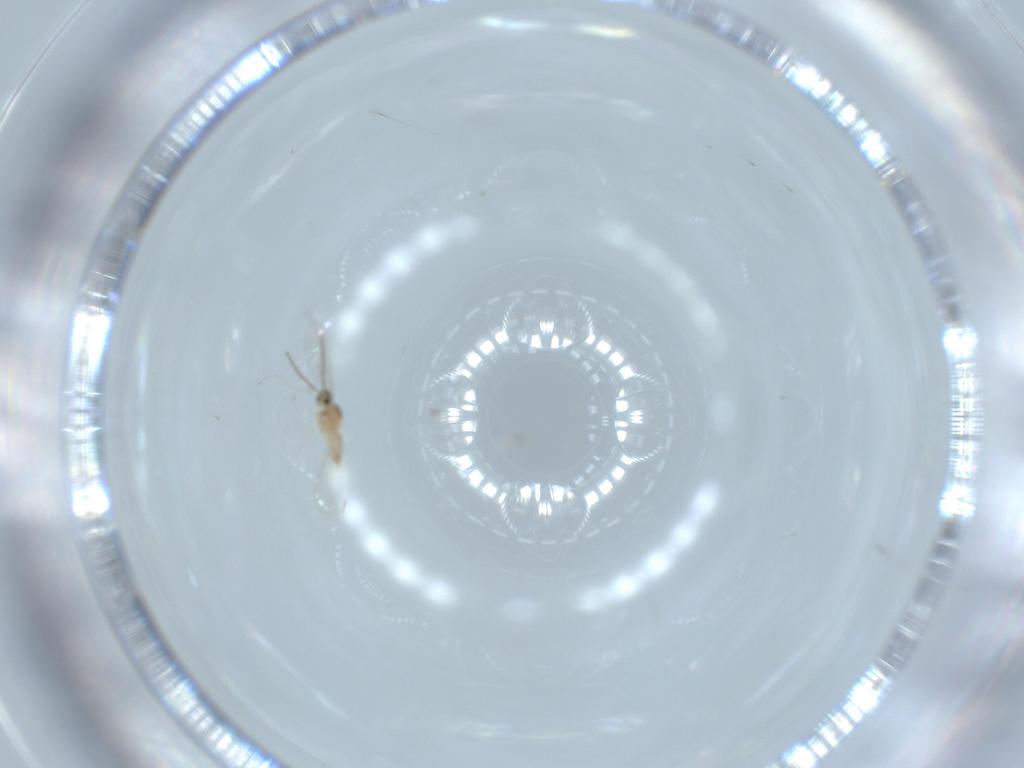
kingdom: Animalia
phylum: Arthropoda
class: Insecta
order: Diptera
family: Cecidomyiidae
